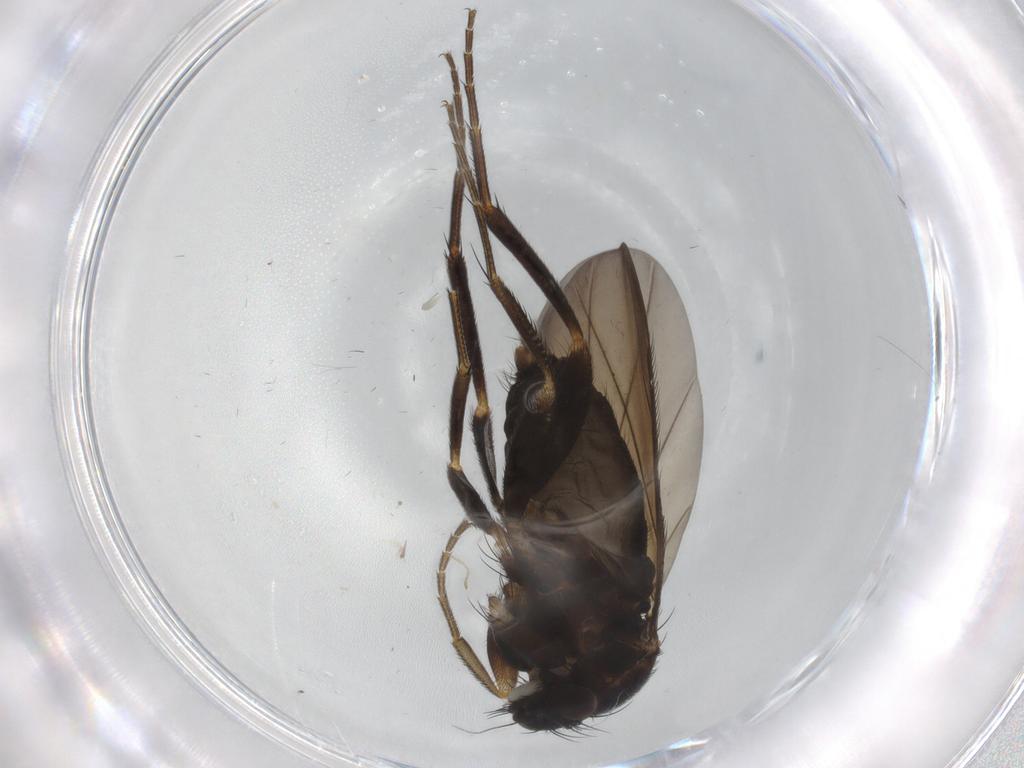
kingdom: Animalia
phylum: Arthropoda
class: Insecta
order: Diptera
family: Phoridae
